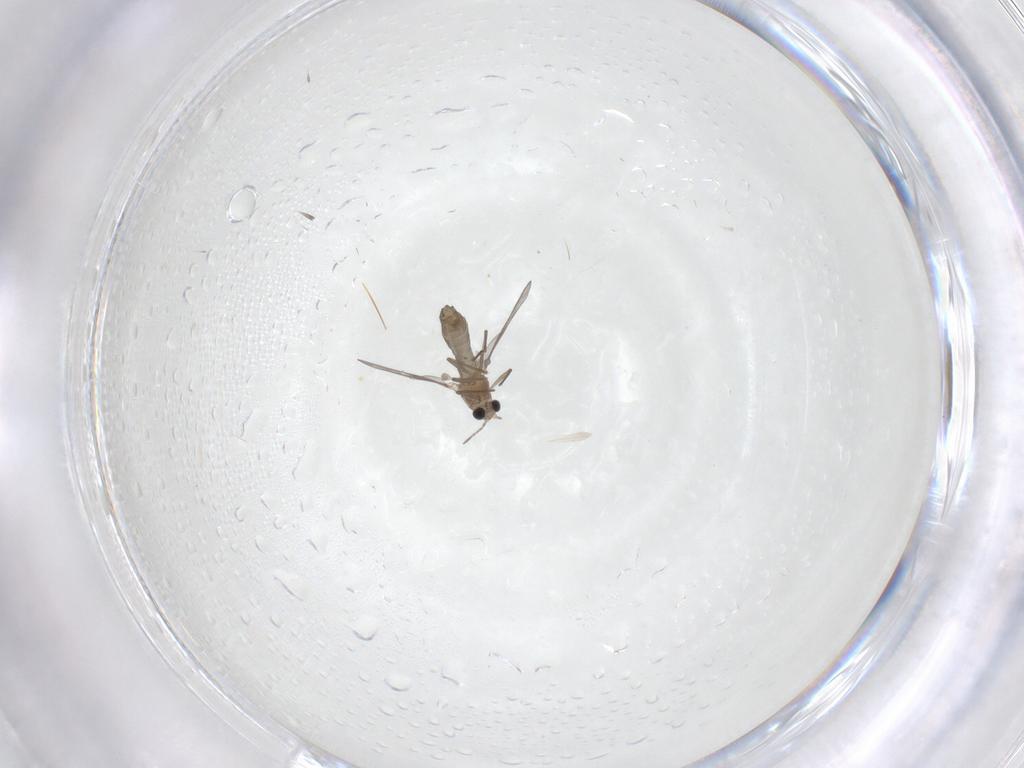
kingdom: Animalia
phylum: Arthropoda
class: Insecta
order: Diptera
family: Chironomidae
